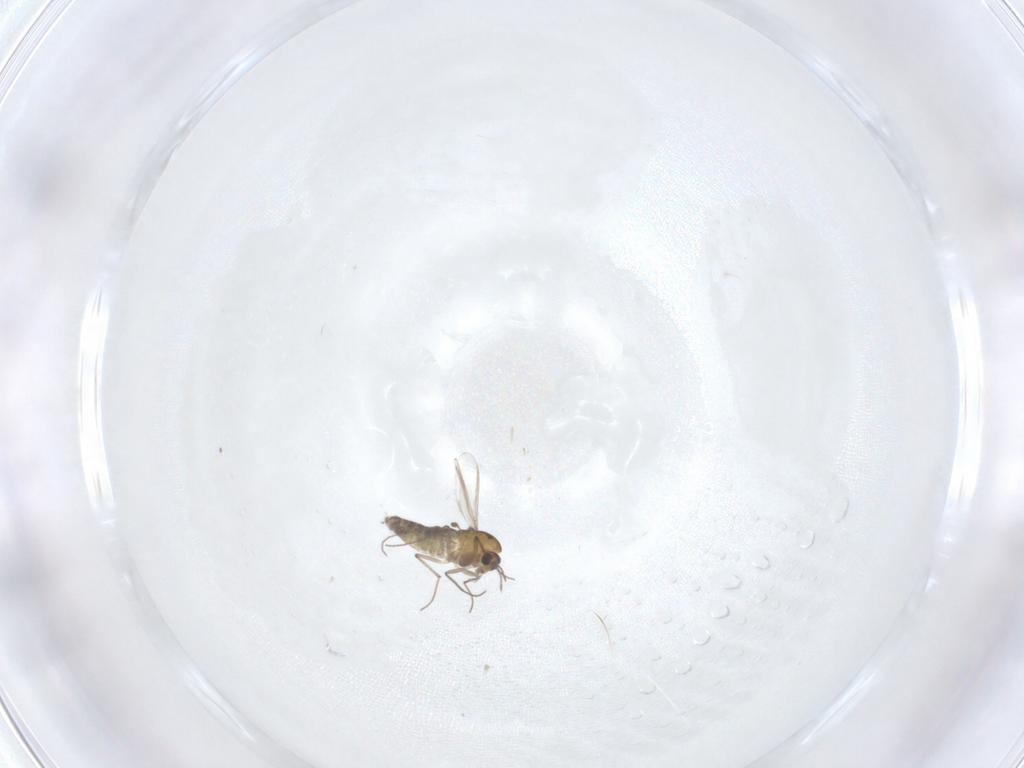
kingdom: Animalia
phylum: Arthropoda
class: Insecta
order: Diptera
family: Chironomidae
